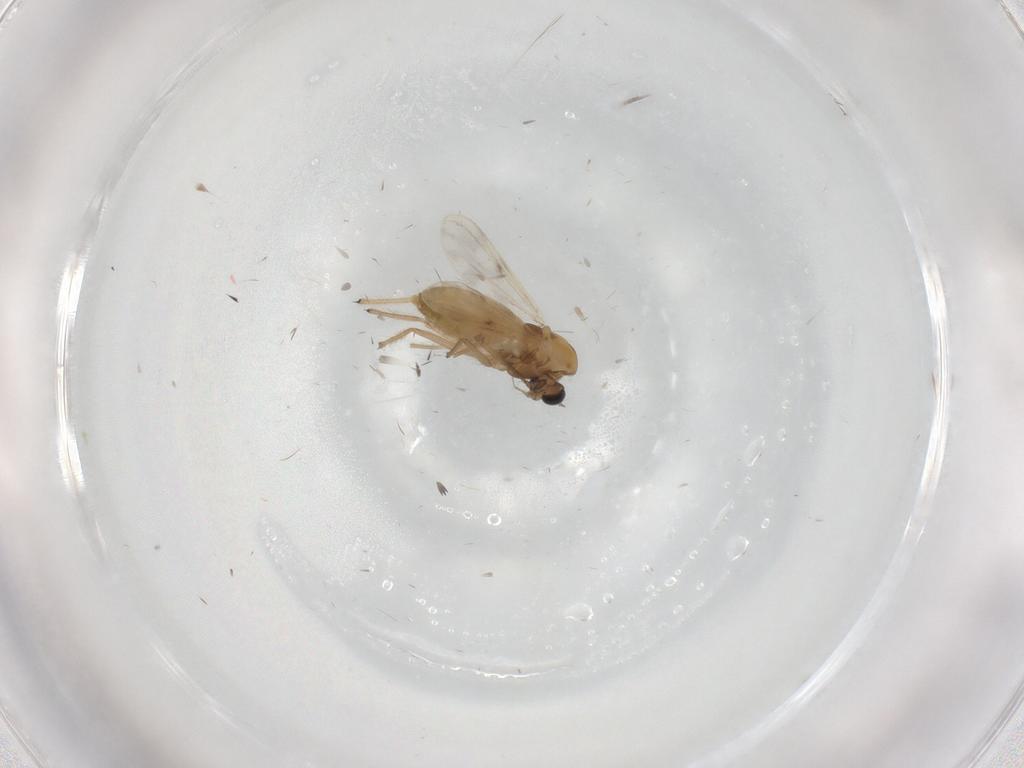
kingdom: Animalia
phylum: Arthropoda
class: Insecta
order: Diptera
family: Chironomidae
